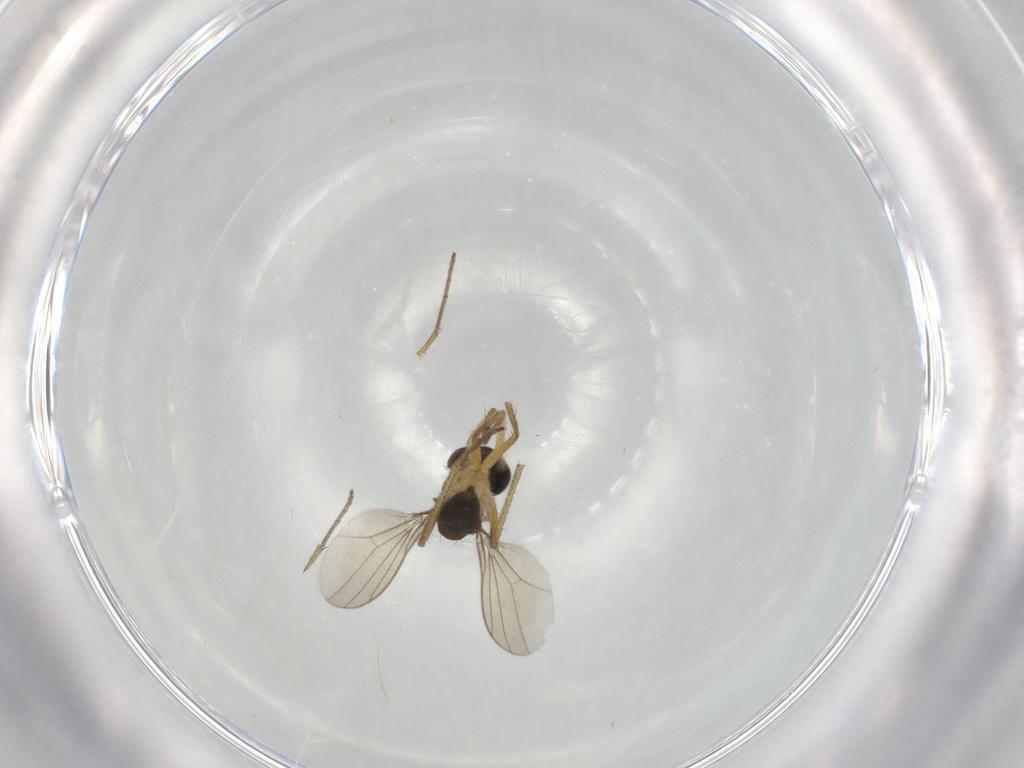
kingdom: Animalia
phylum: Arthropoda
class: Insecta
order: Diptera
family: Dolichopodidae
